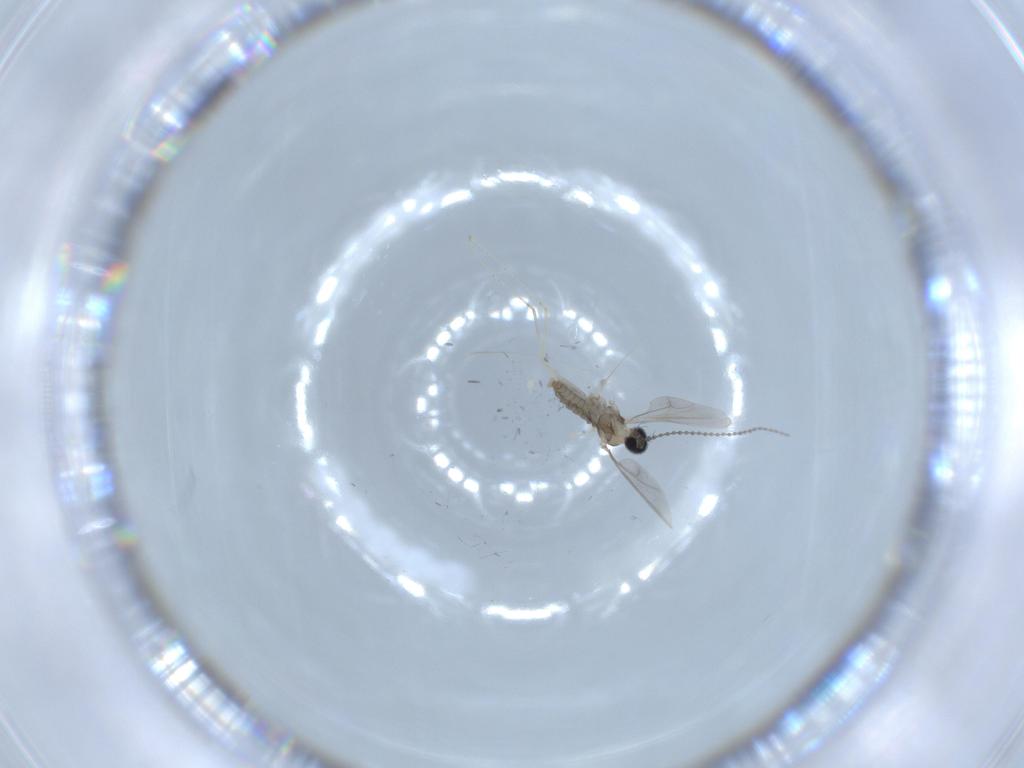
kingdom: Animalia
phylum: Arthropoda
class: Insecta
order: Diptera
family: Cecidomyiidae
